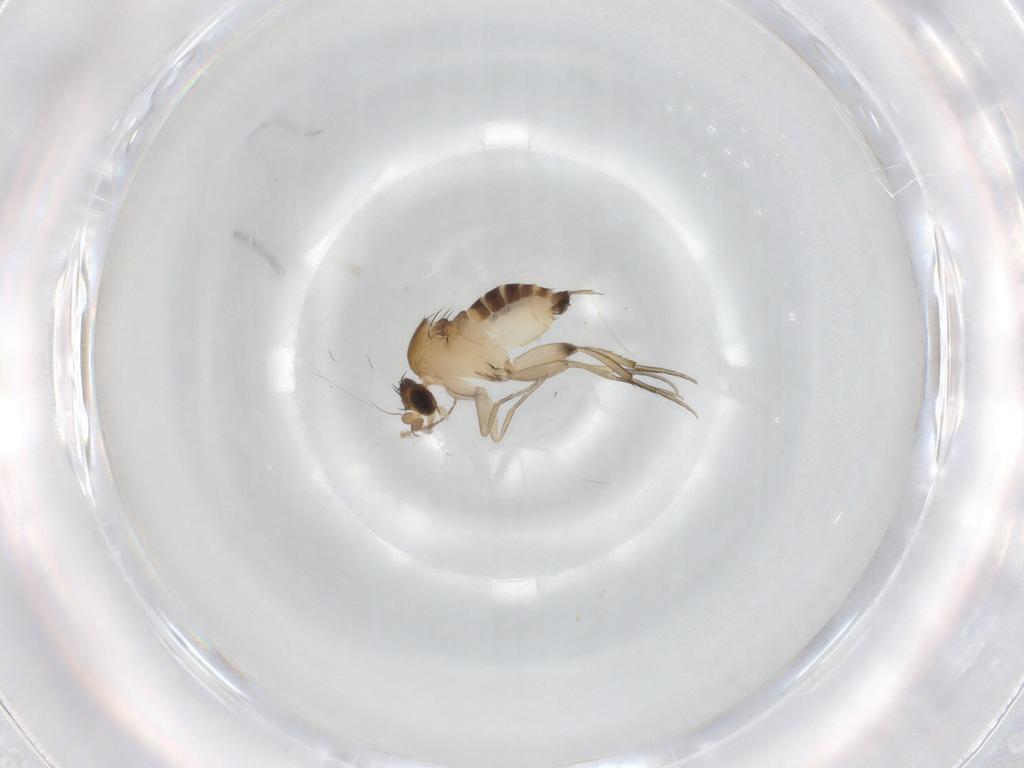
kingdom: Animalia
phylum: Arthropoda
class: Insecta
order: Diptera
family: Phoridae
